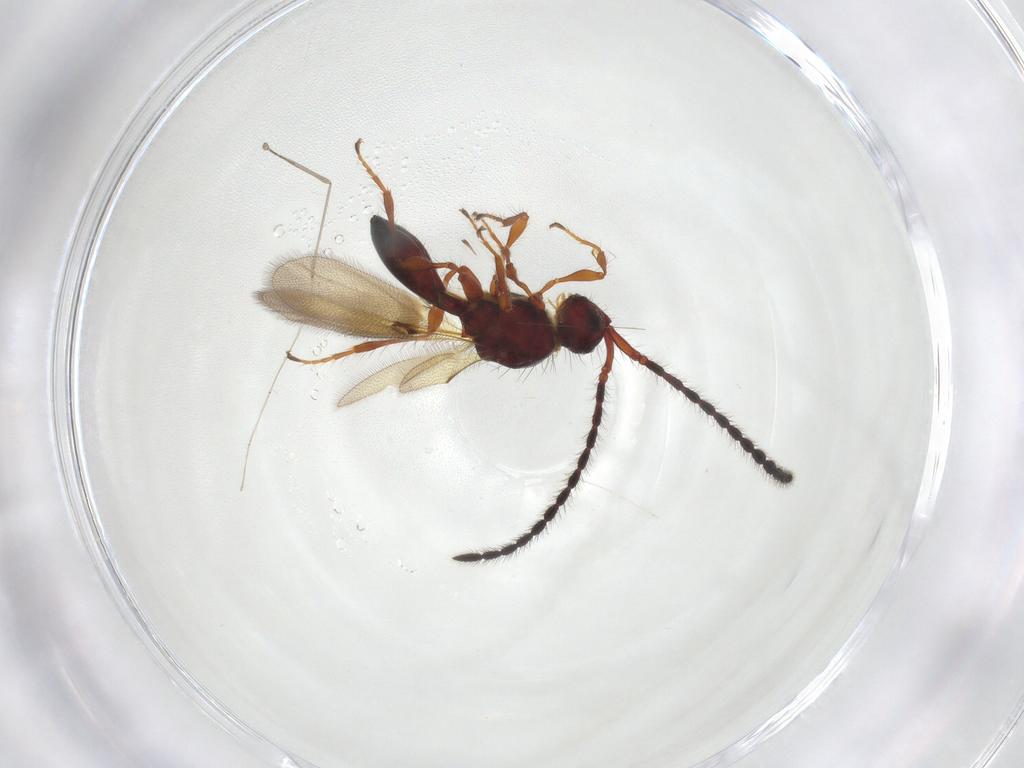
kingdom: Animalia
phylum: Arthropoda
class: Insecta
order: Hymenoptera
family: Diapriidae
